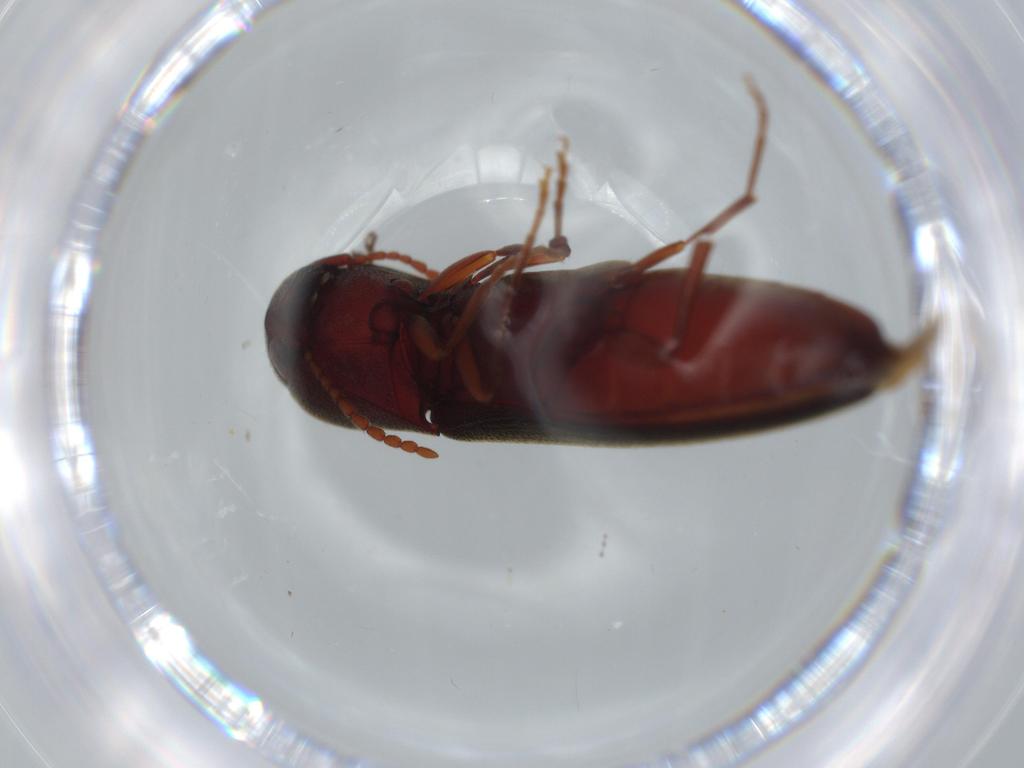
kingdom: Animalia
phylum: Arthropoda
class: Insecta
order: Coleoptera
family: Eucnemidae
